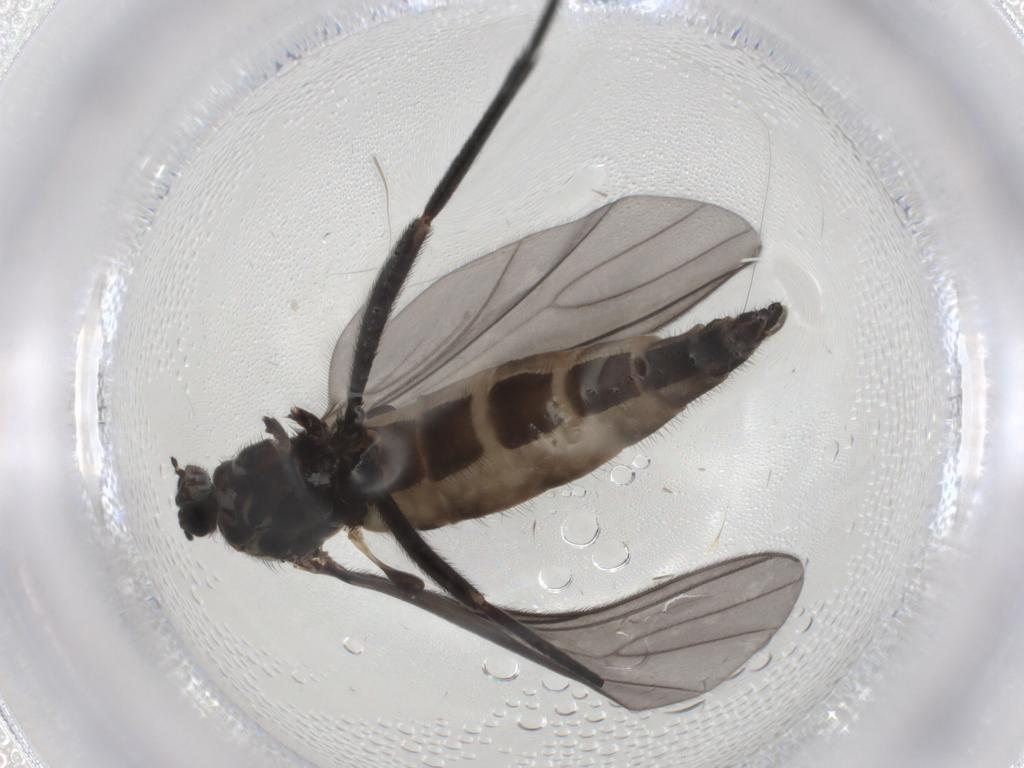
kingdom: Animalia
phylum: Arthropoda
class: Insecta
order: Diptera
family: Sciaridae
